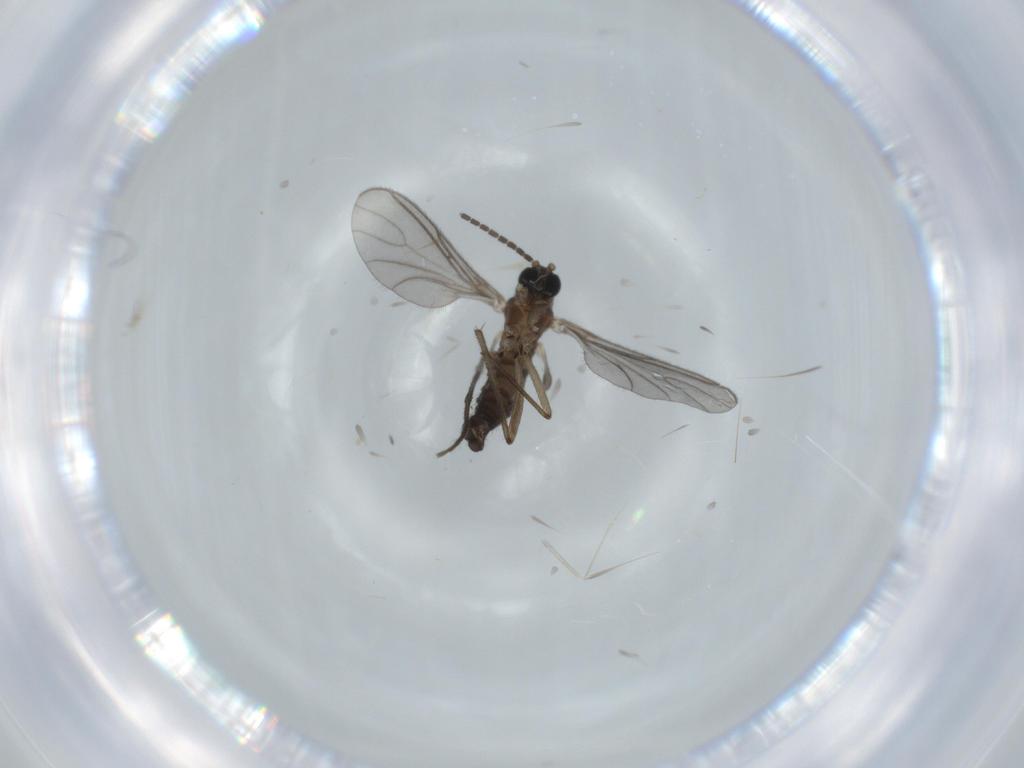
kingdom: Animalia
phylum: Arthropoda
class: Insecta
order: Diptera
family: Sciaridae
